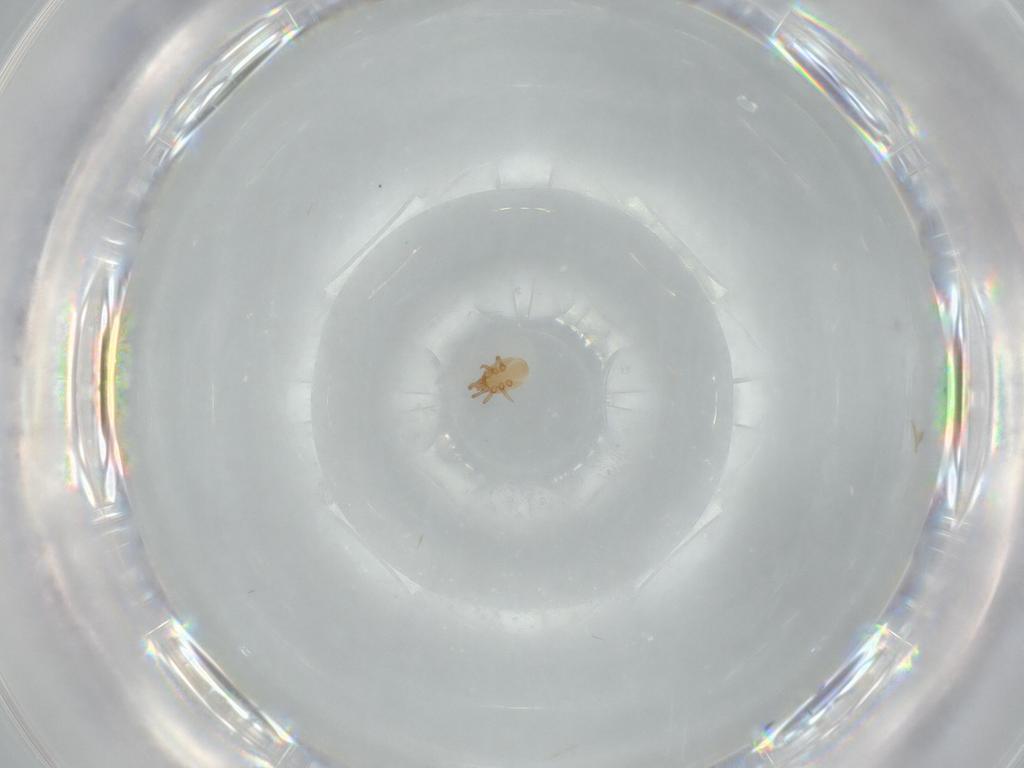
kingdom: Animalia
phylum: Arthropoda
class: Arachnida
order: Mesostigmata
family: Dinychidae
